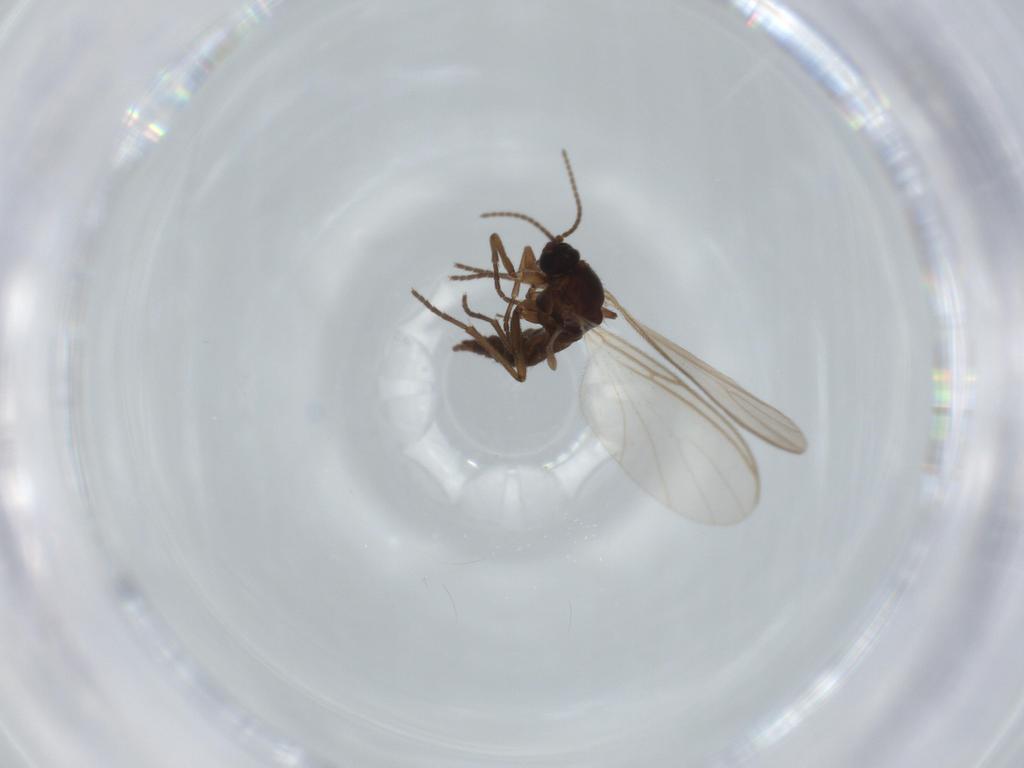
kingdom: Animalia
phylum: Arthropoda
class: Insecta
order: Diptera
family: Sciaridae
